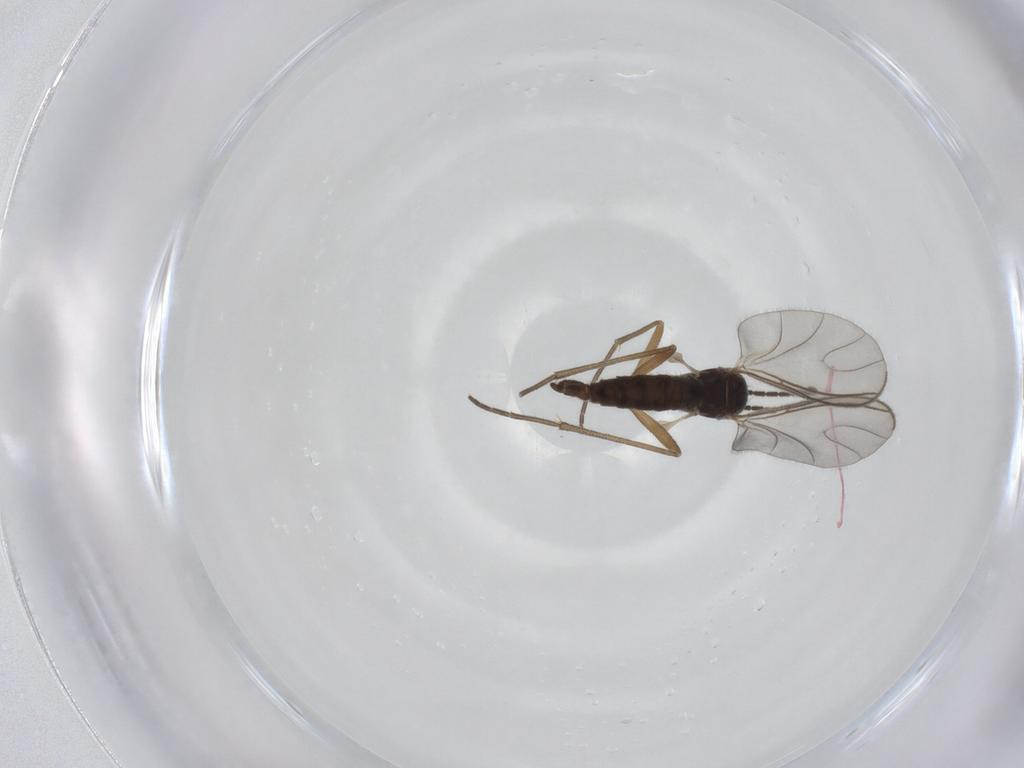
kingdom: Animalia
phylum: Arthropoda
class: Insecta
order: Diptera
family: Sciaridae
